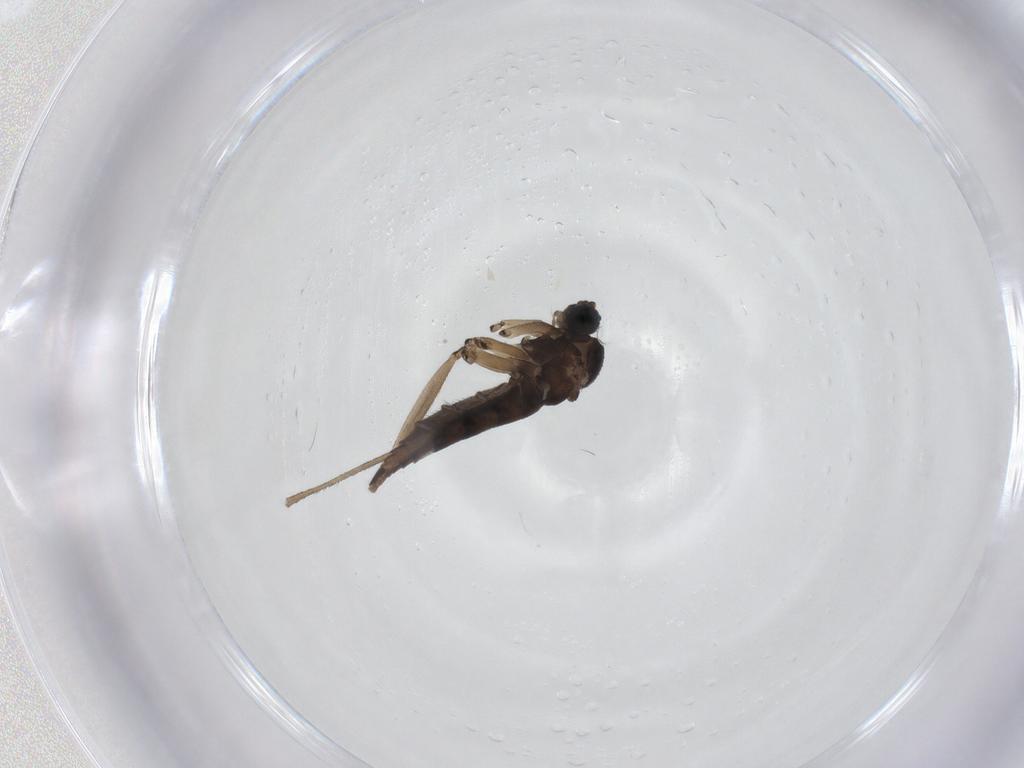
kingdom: Animalia
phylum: Arthropoda
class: Insecta
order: Diptera
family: Sciaridae
